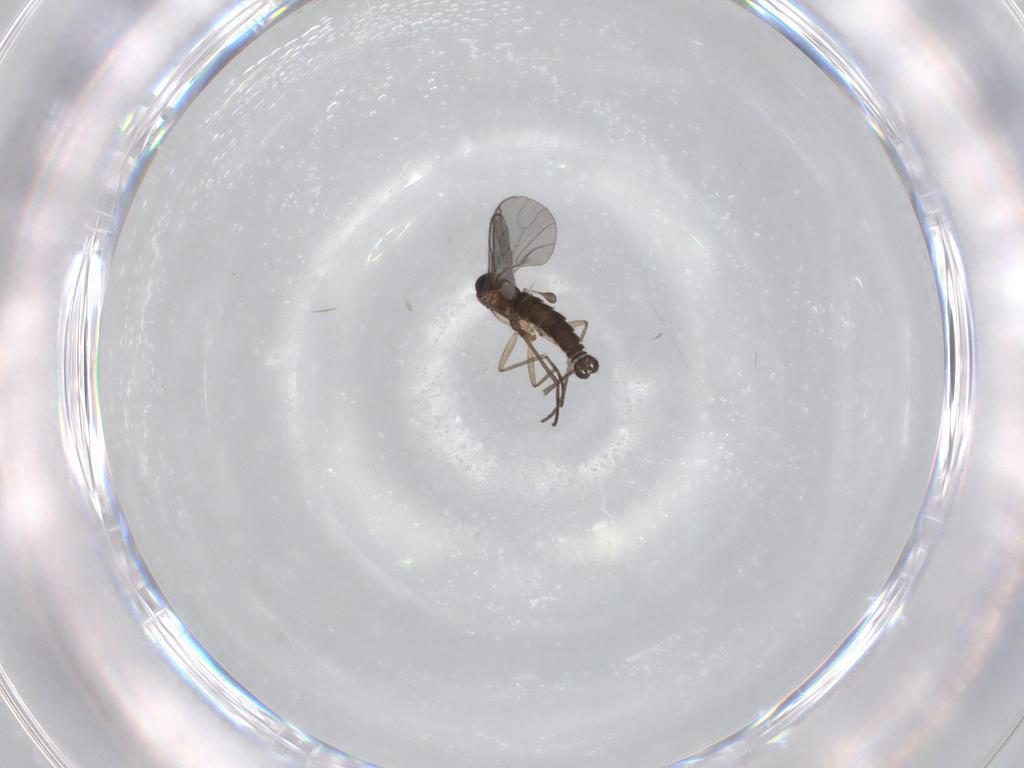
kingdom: Animalia
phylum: Arthropoda
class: Insecta
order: Diptera
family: Sciaridae
